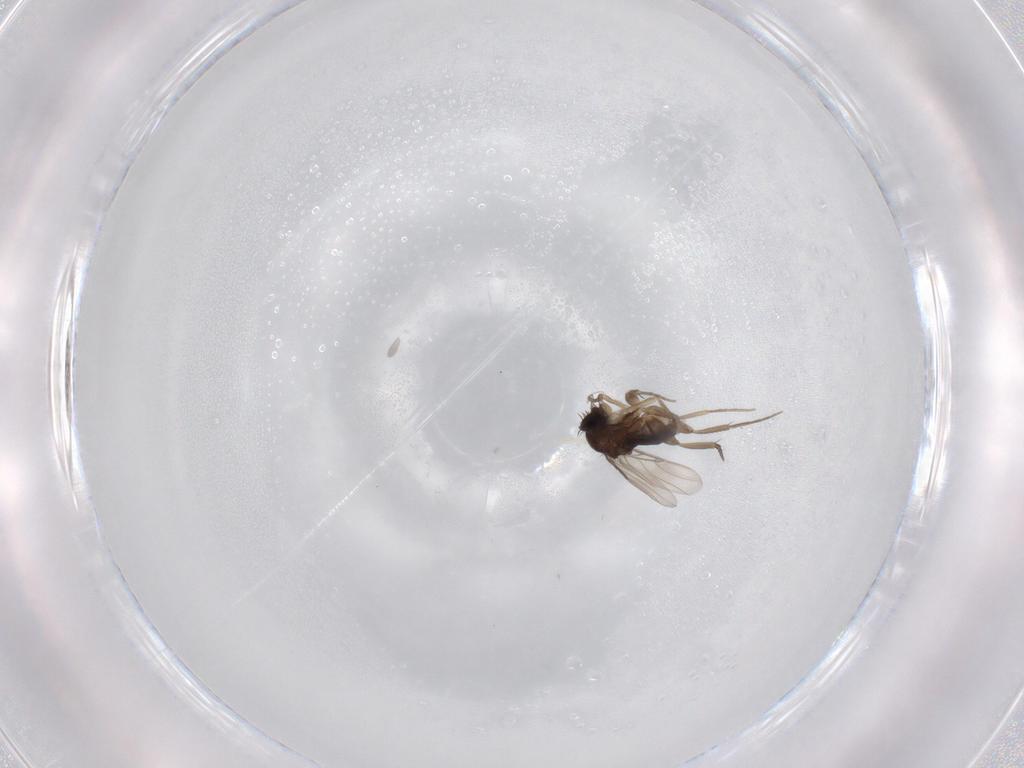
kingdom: Animalia
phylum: Arthropoda
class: Insecta
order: Diptera
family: Phoridae
